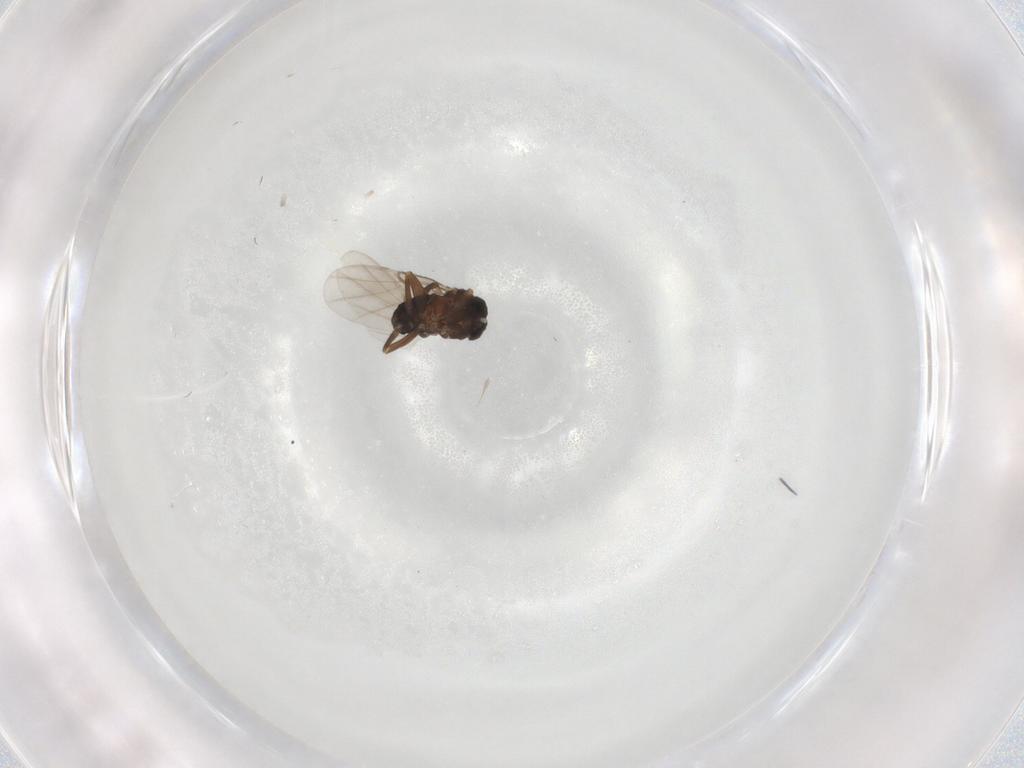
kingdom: Animalia
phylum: Arthropoda
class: Insecta
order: Diptera
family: Cecidomyiidae
